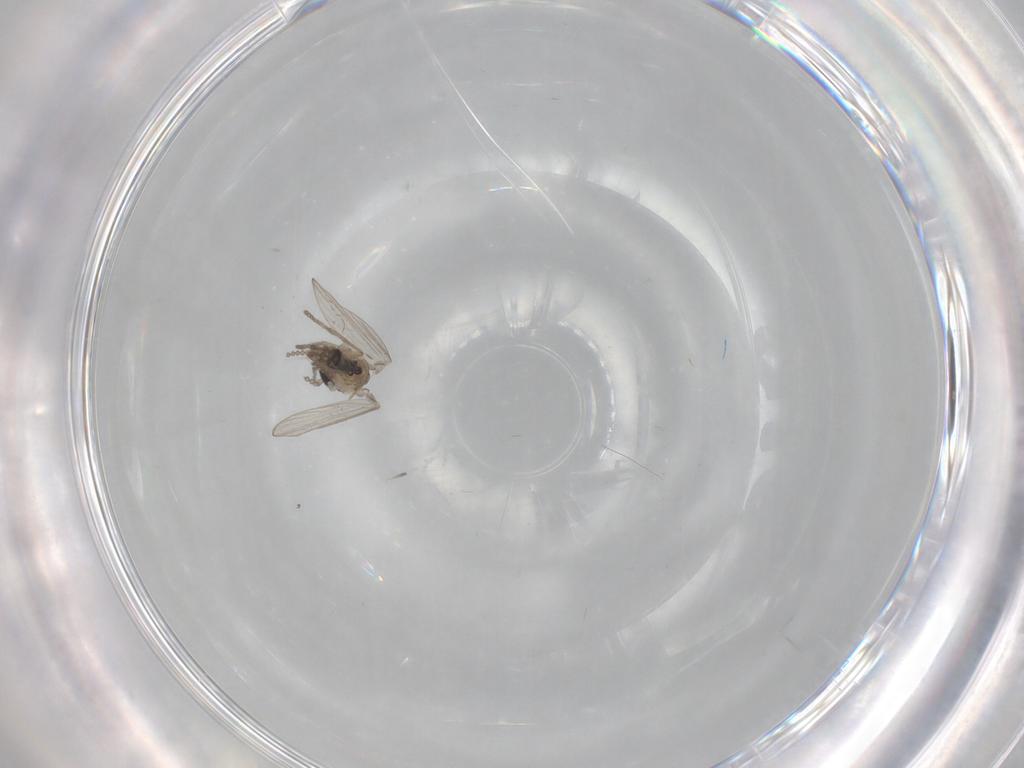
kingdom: Animalia
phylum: Arthropoda
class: Insecta
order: Diptera
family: Psychodidae
